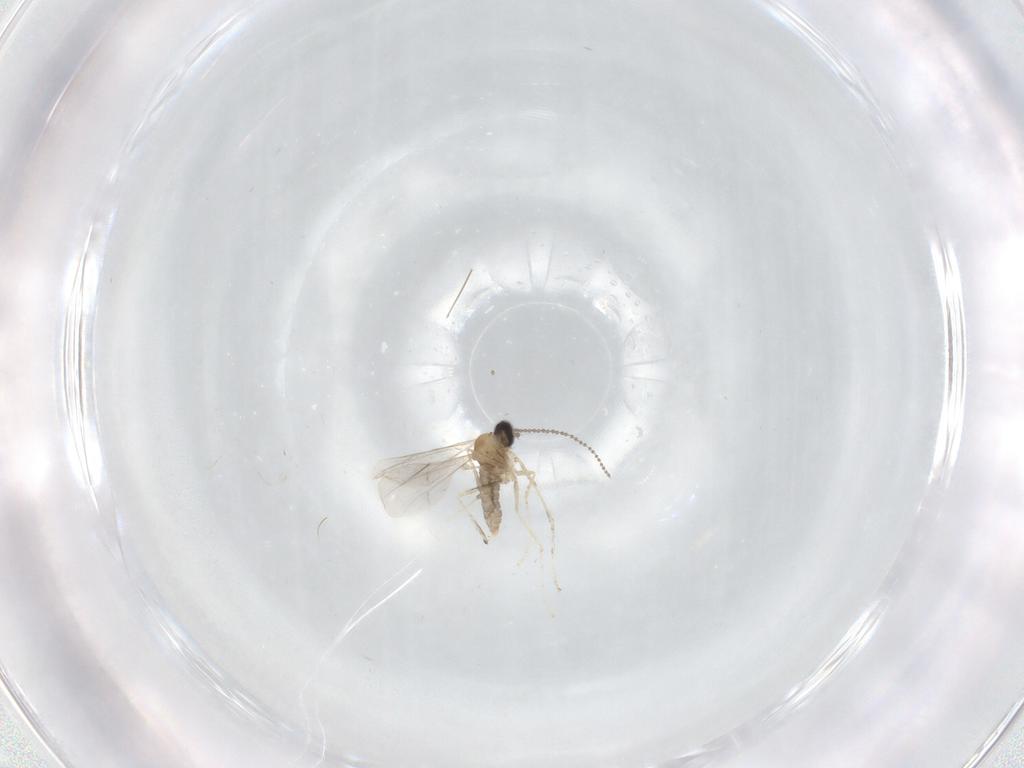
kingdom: Animalia
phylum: Arthropoda
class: Insecta
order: Diptera
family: Cecidomyiidae
